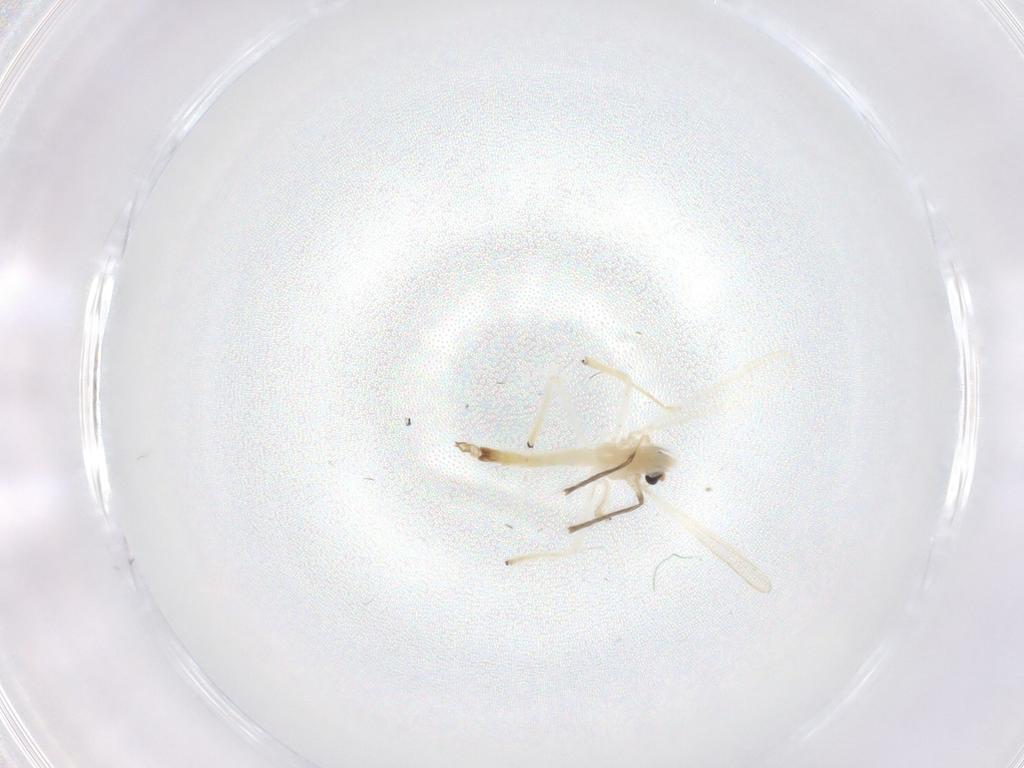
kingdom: Animalia
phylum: Arthropoda
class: Insecta
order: Diptera
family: Chironomidae
